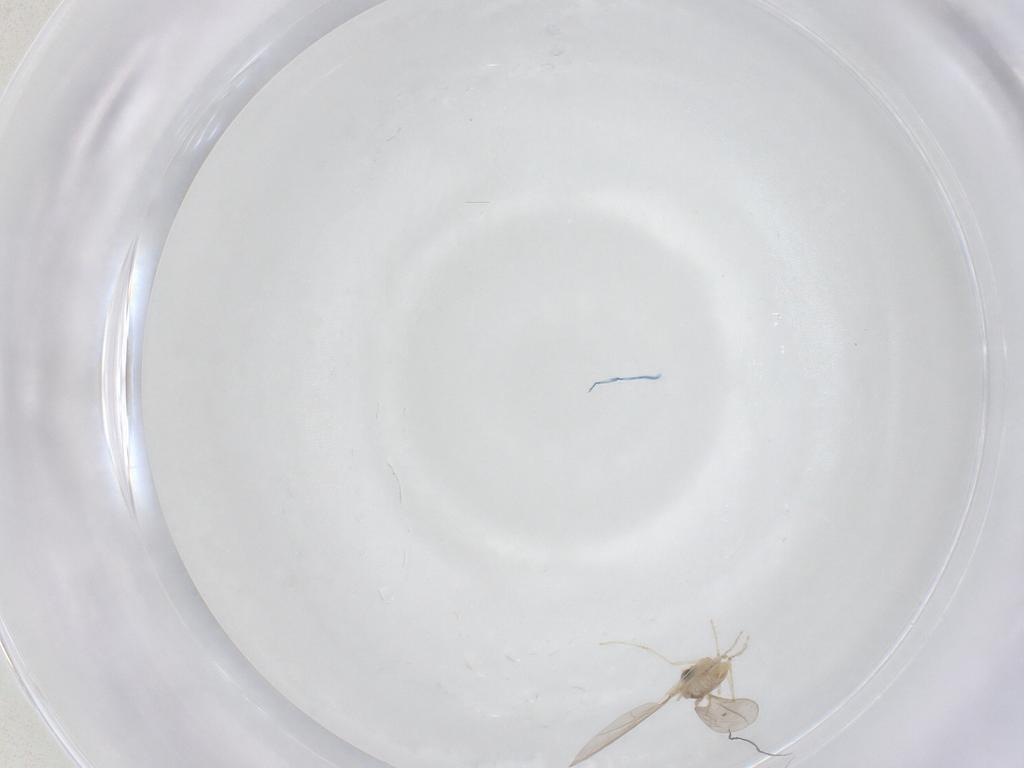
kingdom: Animalia
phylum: Arthropoda
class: Insecta
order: Diptera
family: Cecidomyiidae
